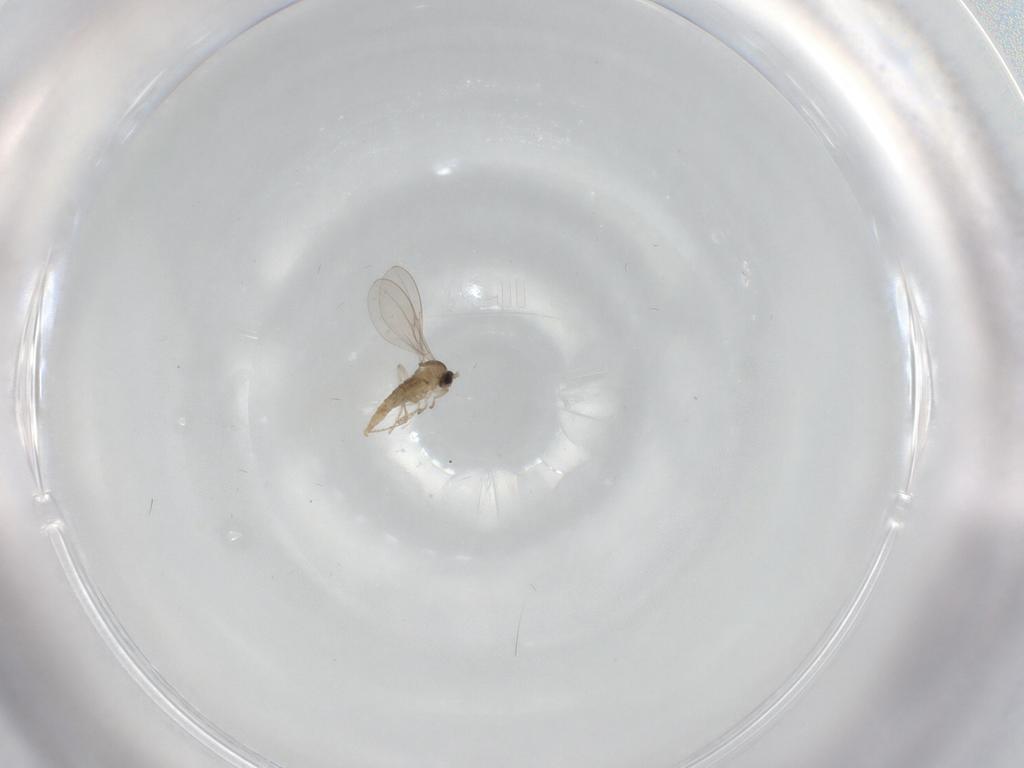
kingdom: Animalia
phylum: Arthropoda
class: Insecta
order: Diptera
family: Cecidomyiidae
